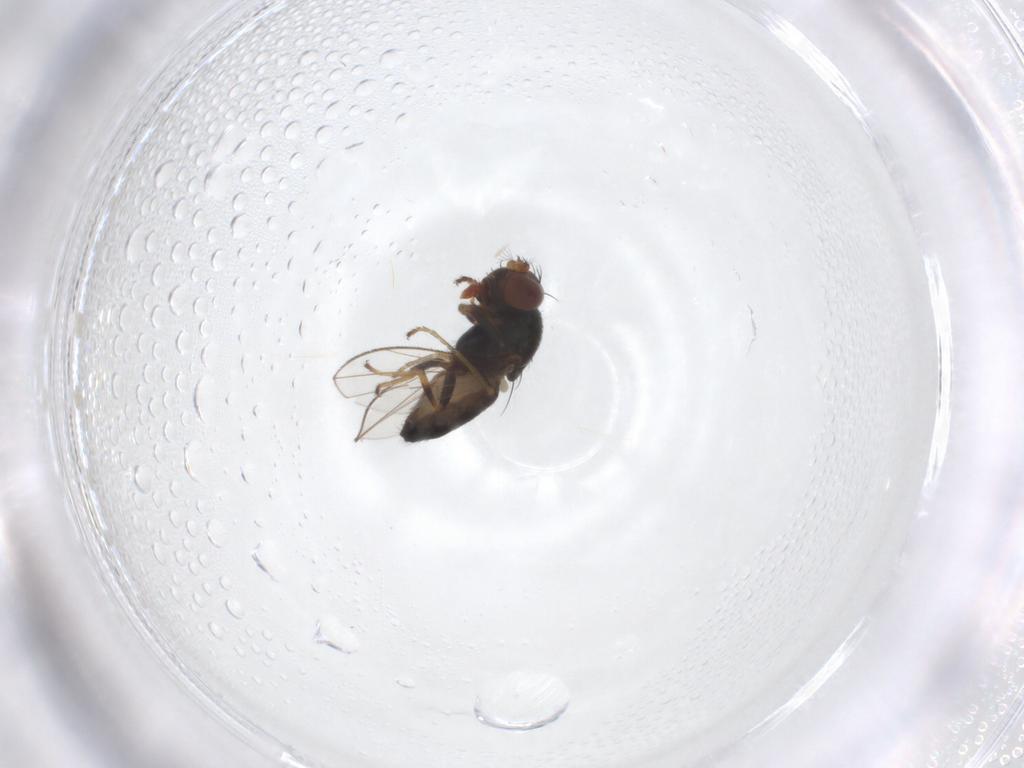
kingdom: Animalia
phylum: Arthropoda
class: Insecta
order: Diptera
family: Ephydridae
